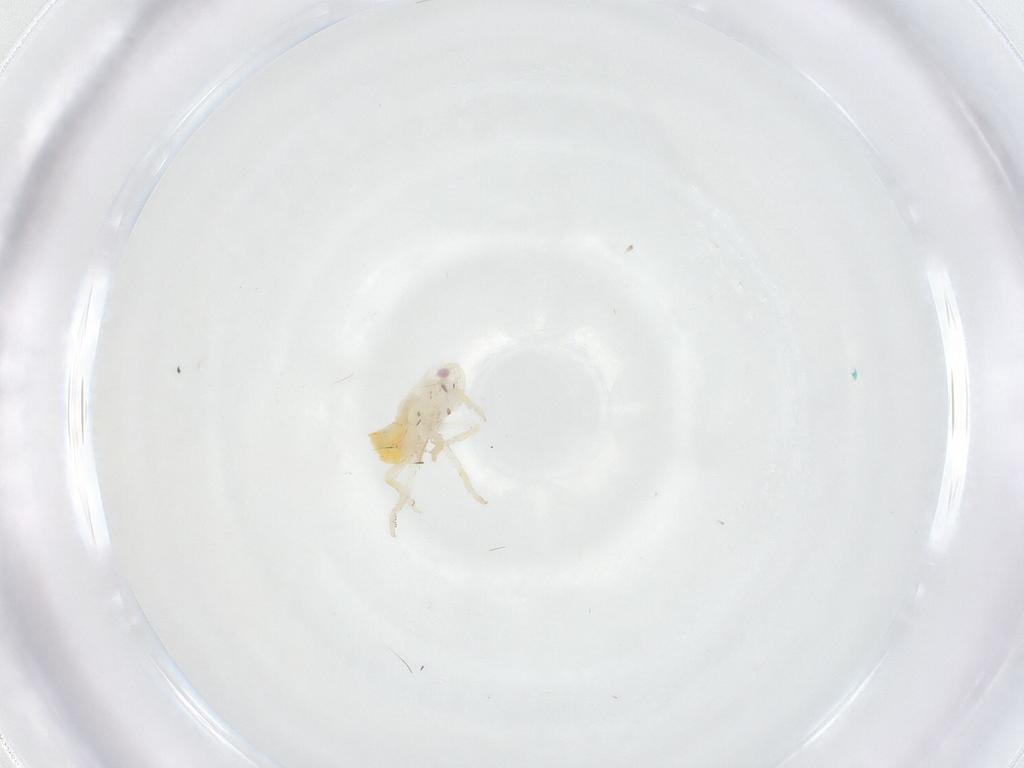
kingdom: Animalia
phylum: Arthropoda
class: Insecta
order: Hemiptera
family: Fulgoroidea_incertae_sedis
